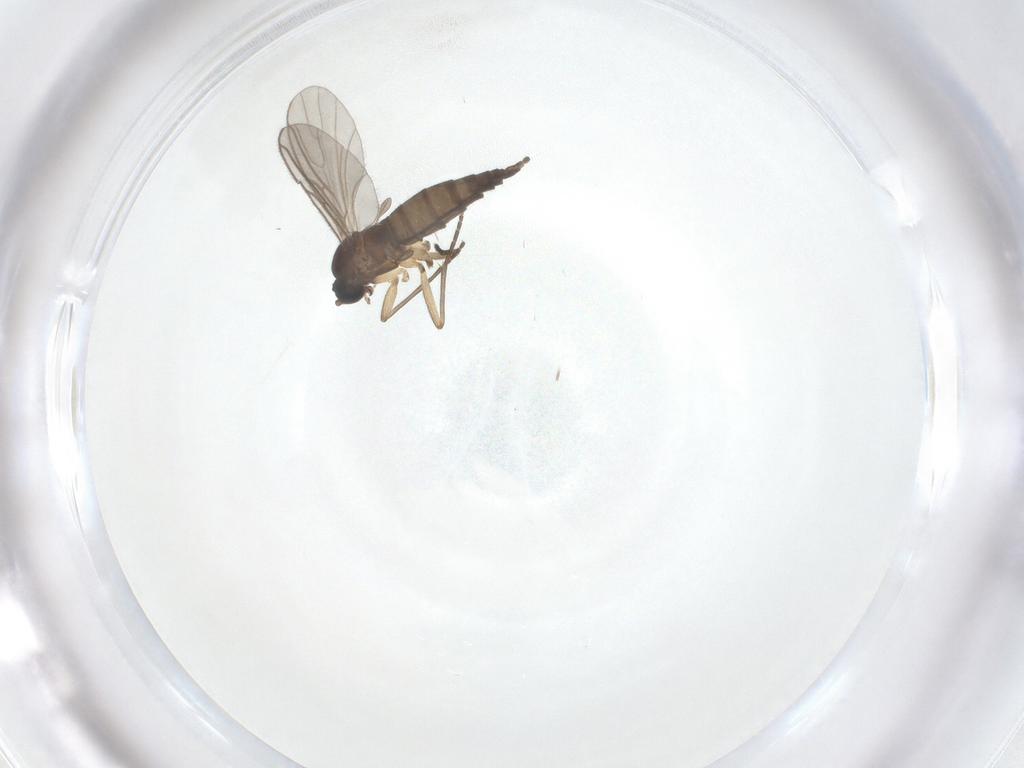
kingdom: Animalia
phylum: Arthropoda
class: Insecta
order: Diptera
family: Sciaridae
